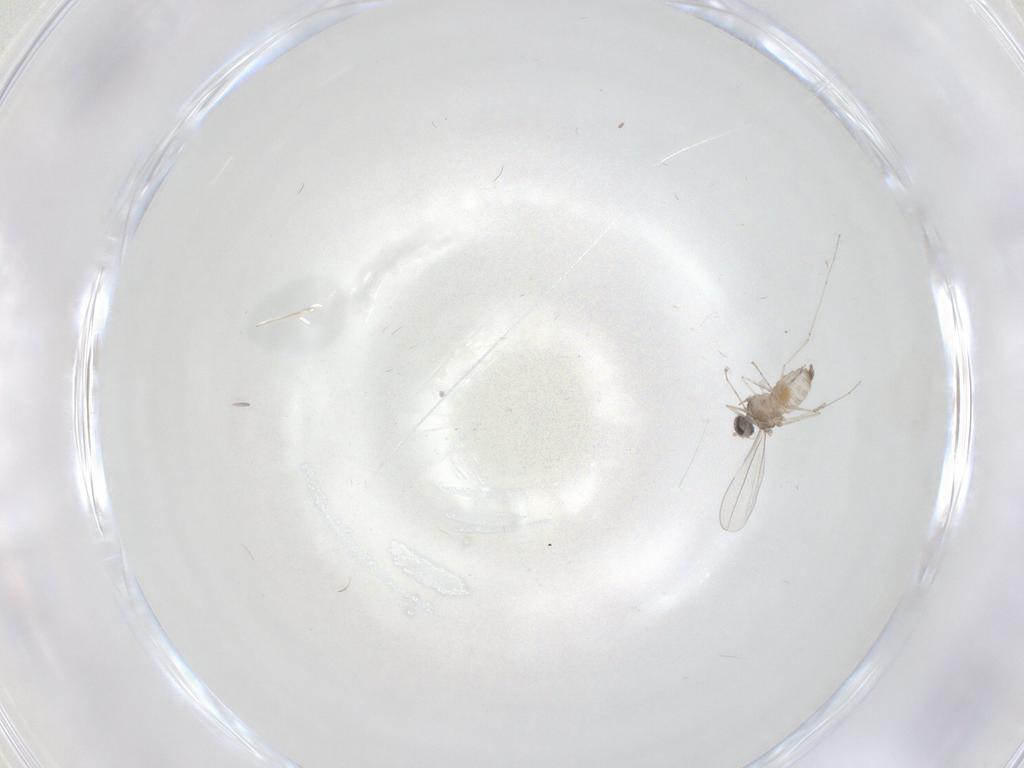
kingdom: Animalia
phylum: Arthropoda
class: Insecta
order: Diptera
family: Cecidomyiidae
